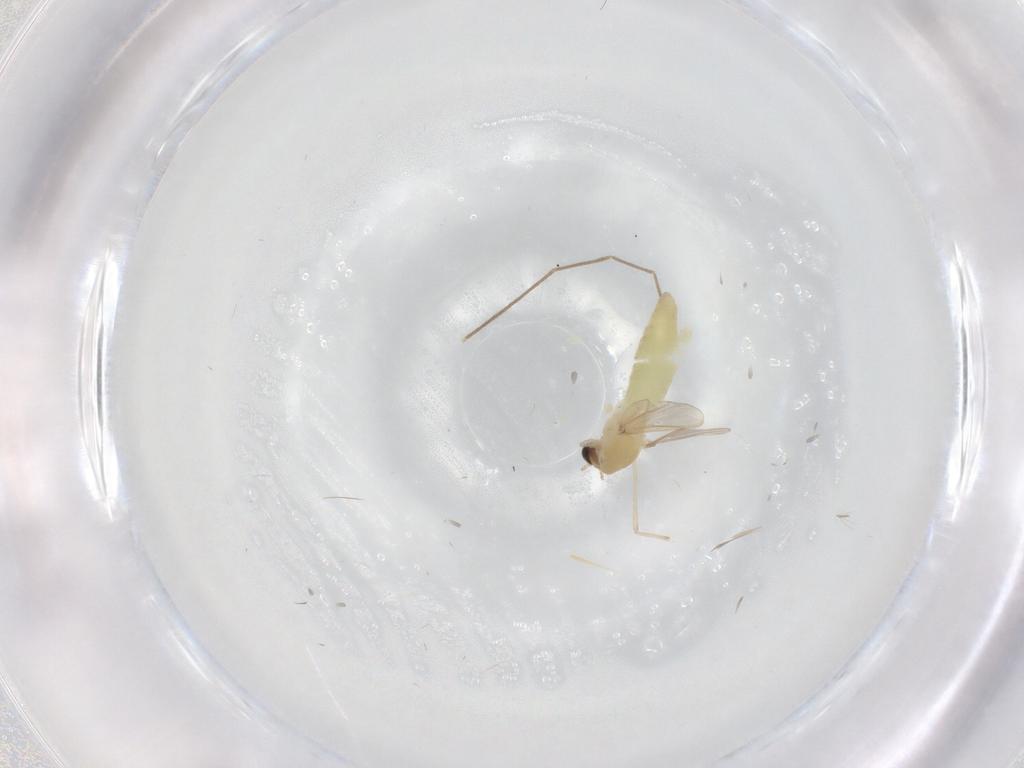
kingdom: Animalia
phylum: Arthropoda
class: Insecta
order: Diptera
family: Chironomidae
